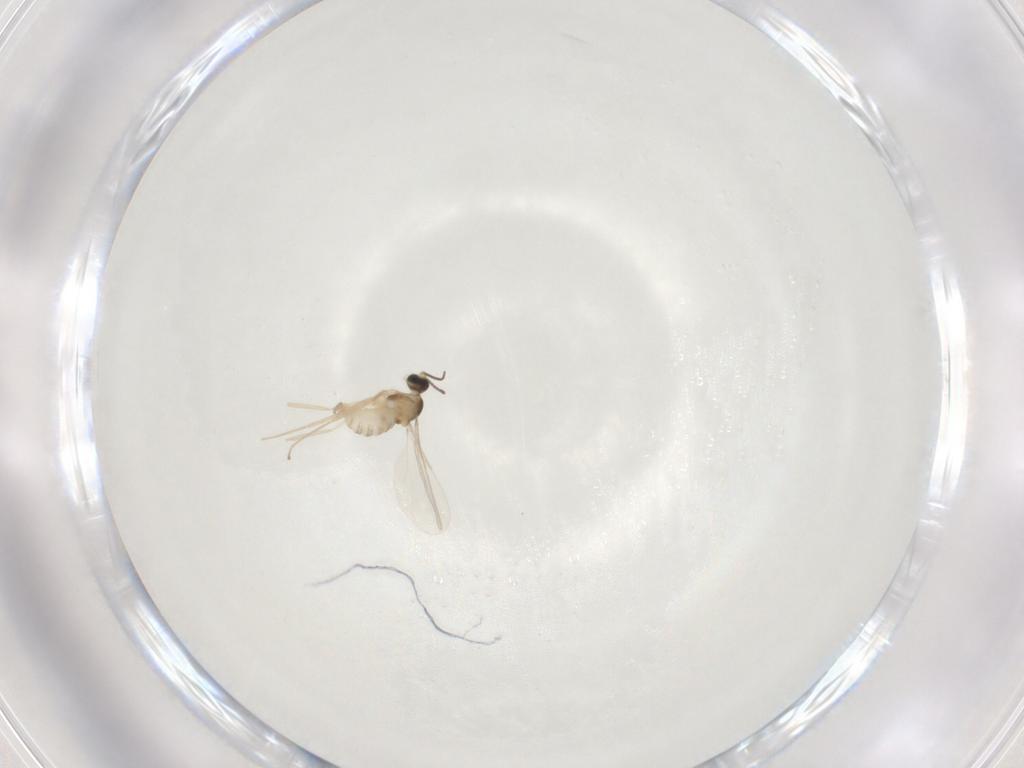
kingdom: Animalia
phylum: Arthropoda
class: Insecta
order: Diptera
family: Cecidomyiidae
